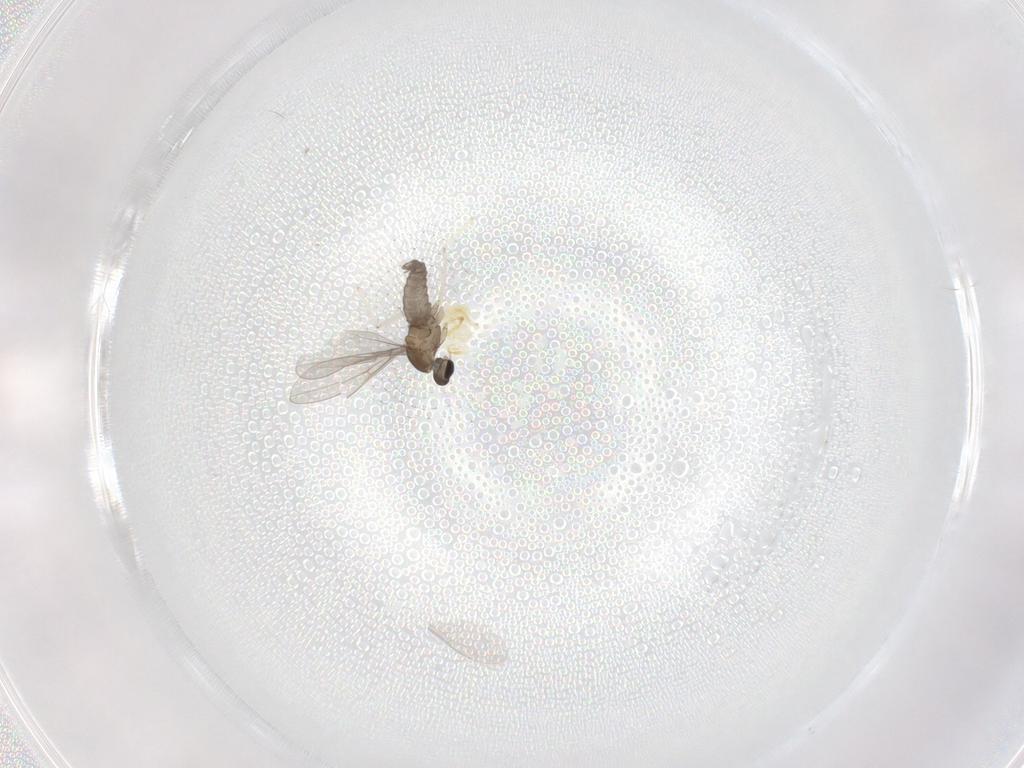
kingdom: Animalia
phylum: Arthropoda
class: Insecta
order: Diptera
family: Cecidomyiidae
